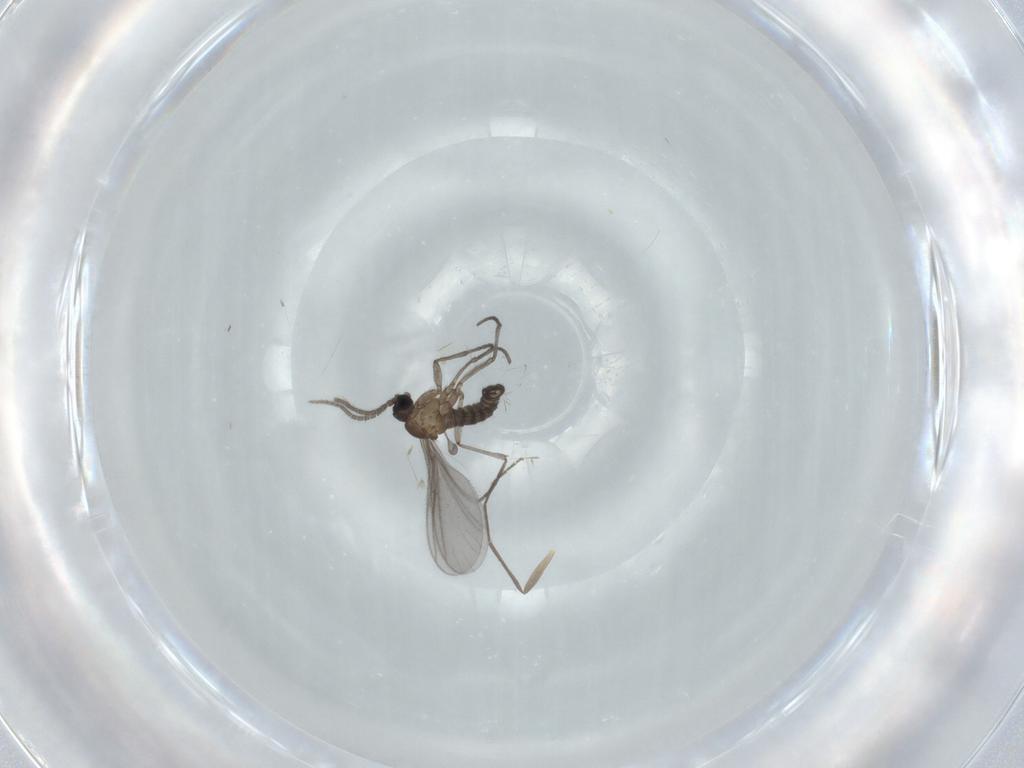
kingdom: Animalia
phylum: Arthropoda
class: Insecta
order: Diptera
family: Sciaridae
